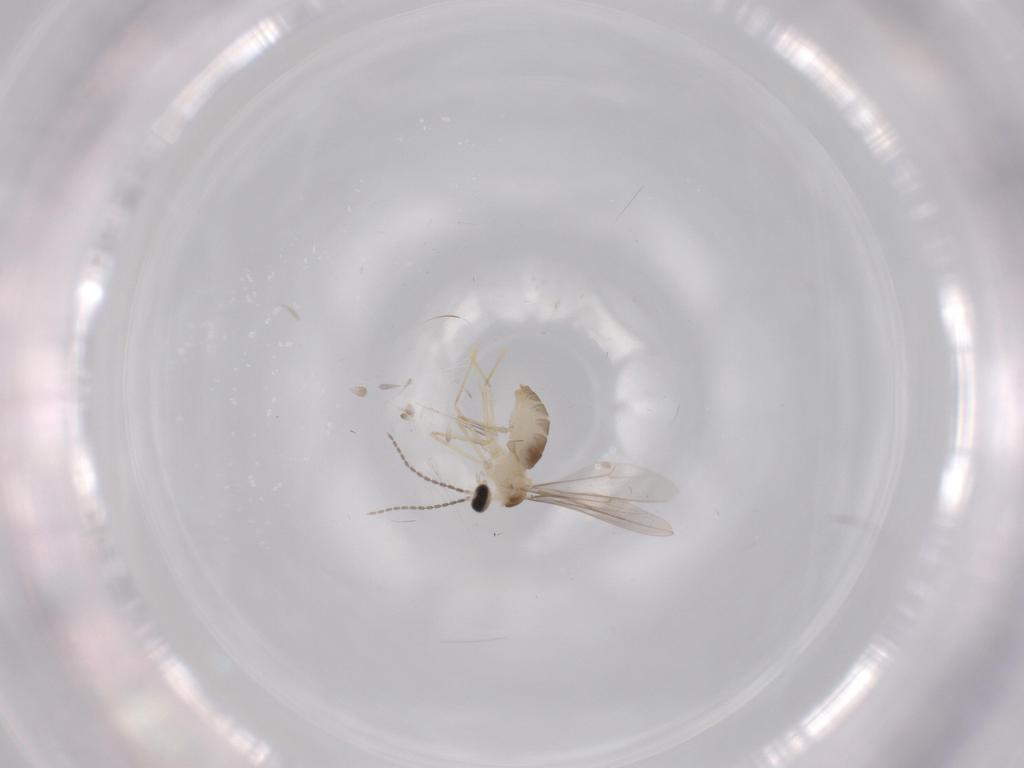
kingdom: Animalia
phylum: Arthropoda
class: Insecta
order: Diptera
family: Cecidomyiidae
